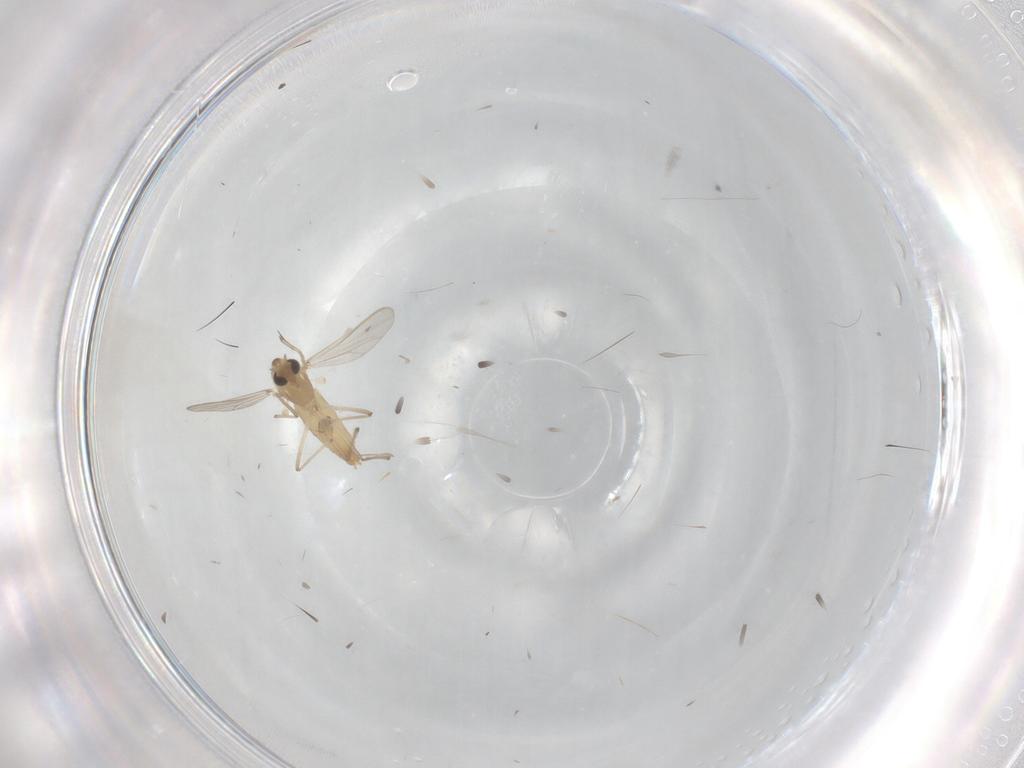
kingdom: Animalia
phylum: Arthropoda
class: Insecta
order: Diptera
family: Chironomidae
